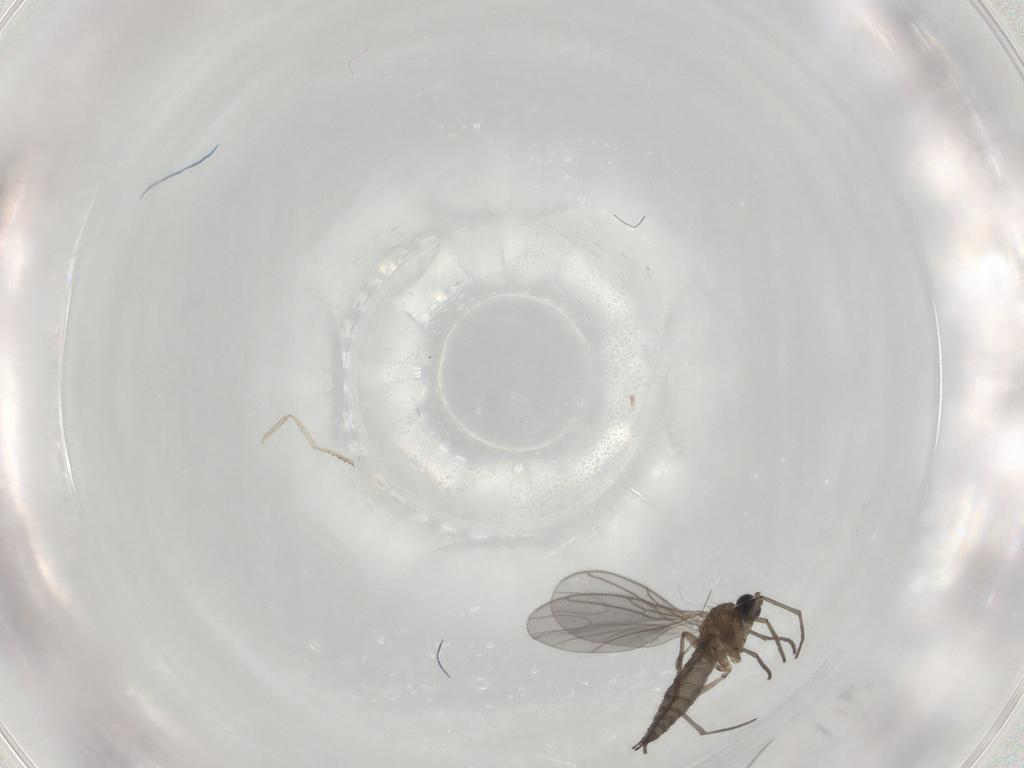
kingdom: Animalia
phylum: Arthropoda
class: Insecta
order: Diptera
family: Sciaridae
